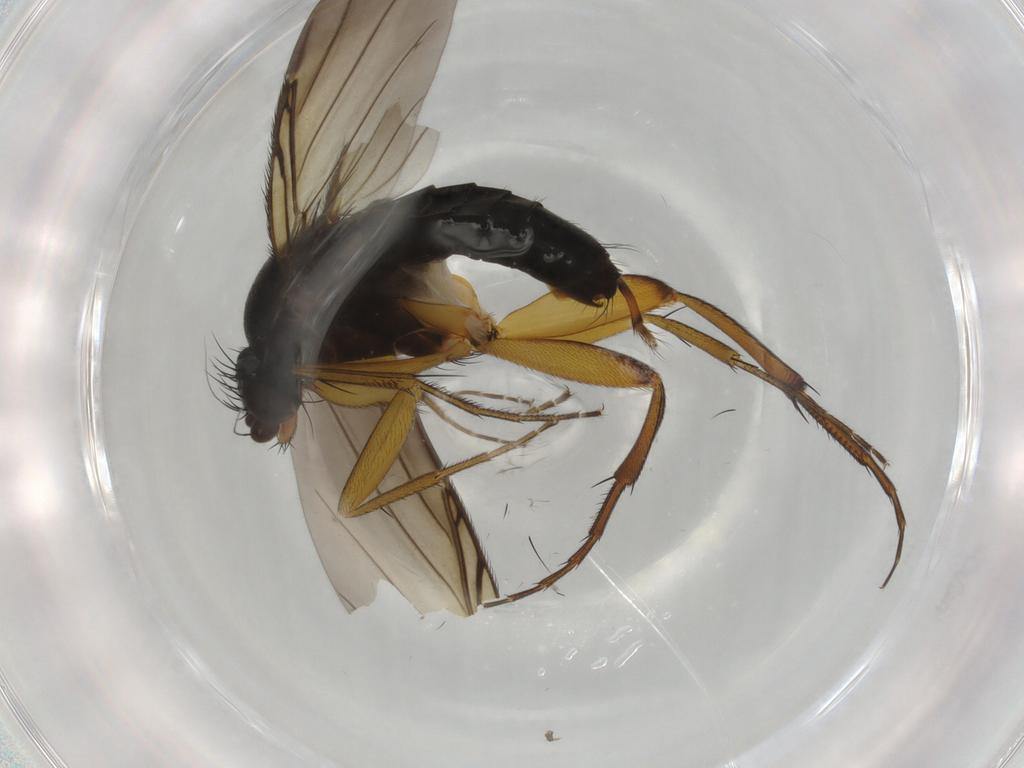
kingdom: Animalia
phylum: Arthropoda
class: Insecta
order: Diptera
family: Phoridae
